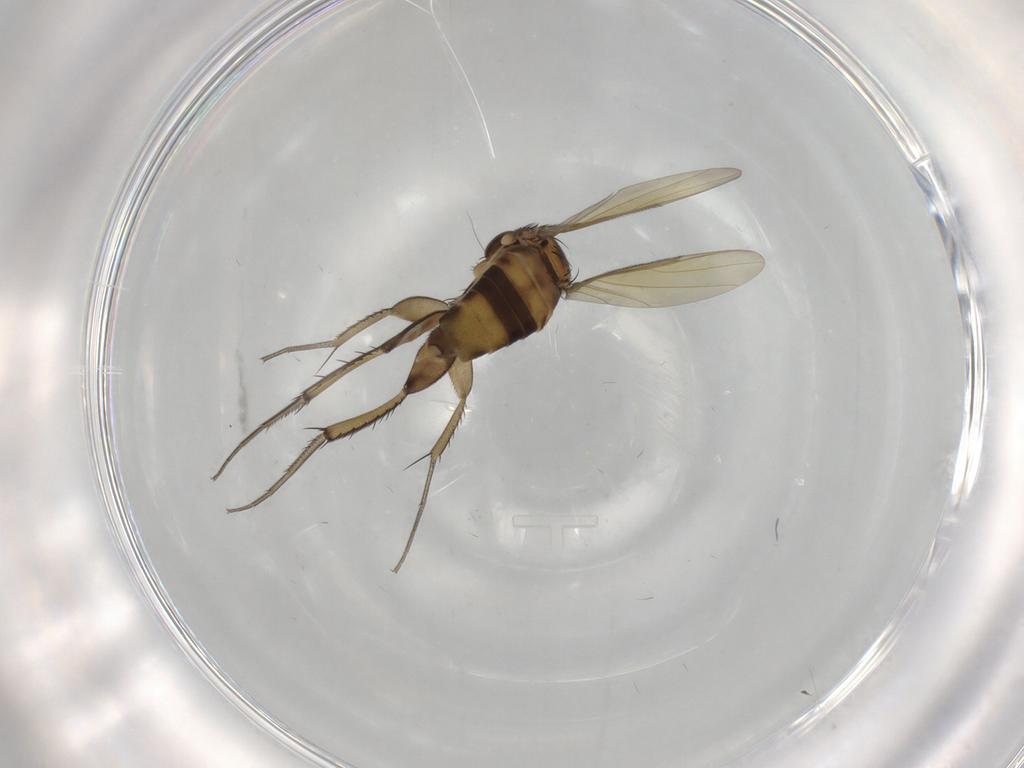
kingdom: Animalia
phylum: Arthropoda
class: Insecta
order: Diptera
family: Phoridae
